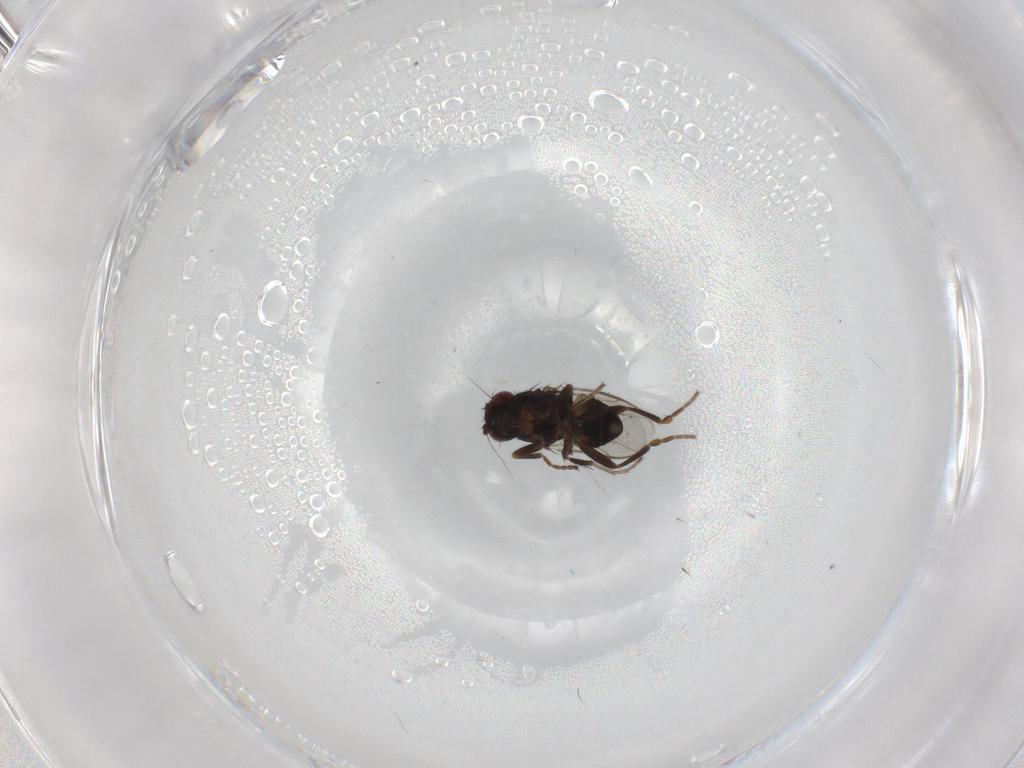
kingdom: Animalia
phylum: Arthropoda
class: Insecta
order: Diptera
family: Sphaeroceridae
